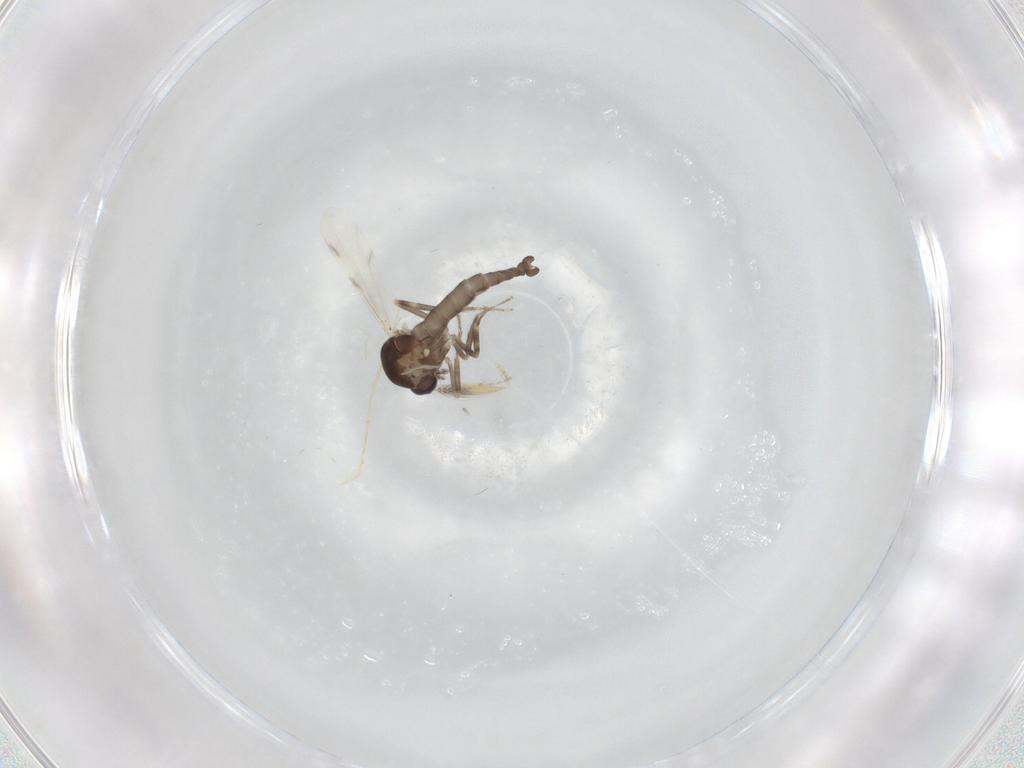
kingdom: Animalia
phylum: Arthropoda
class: Insecta
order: Diptera
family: Ceratopogonidae
